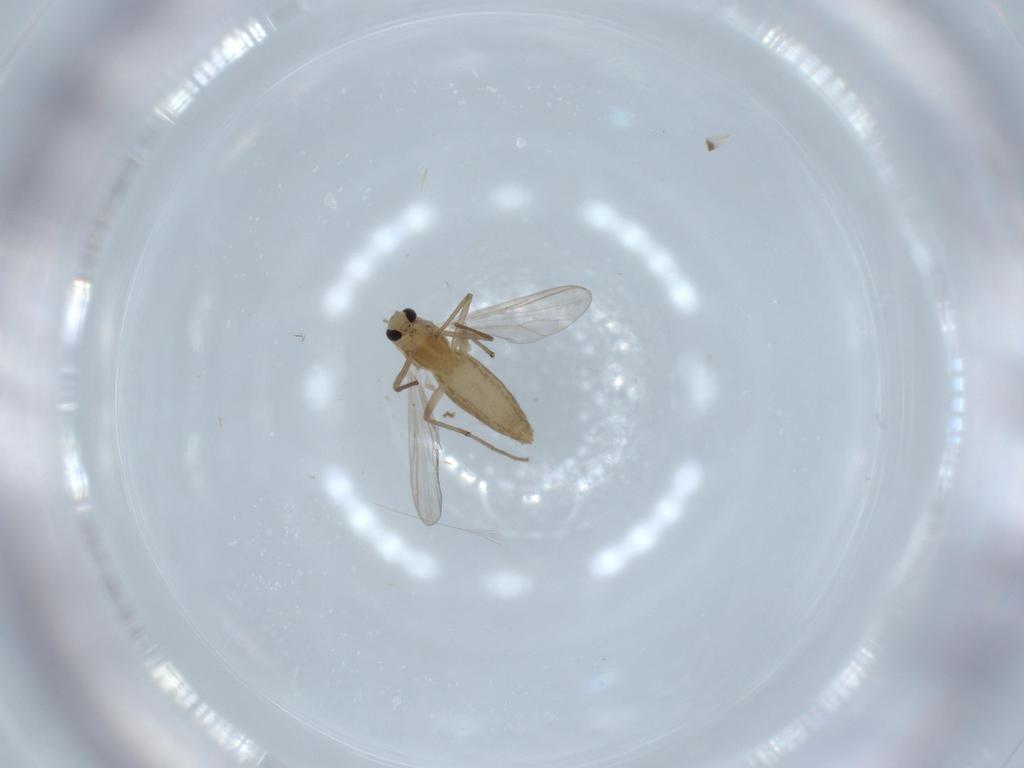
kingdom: Animalia
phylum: Arthropoda
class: Insecta
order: Diptera
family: Chironomidae
